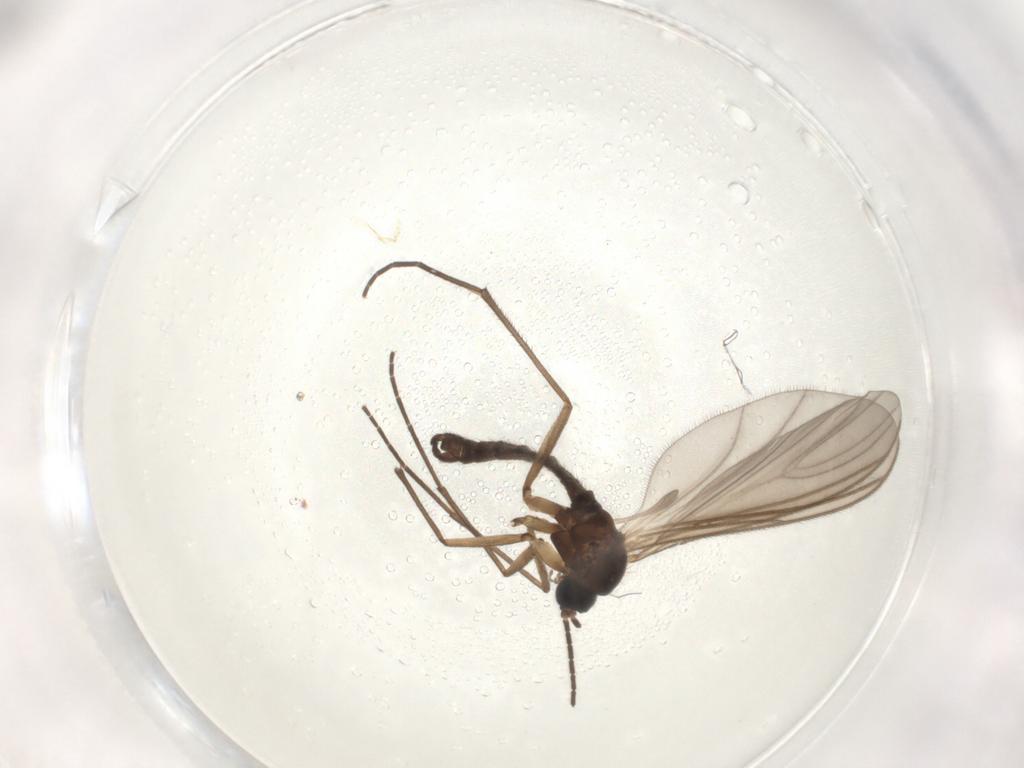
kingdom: Animalia
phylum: Arthropoda
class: Insecta
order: Diptera
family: Sciaridae
